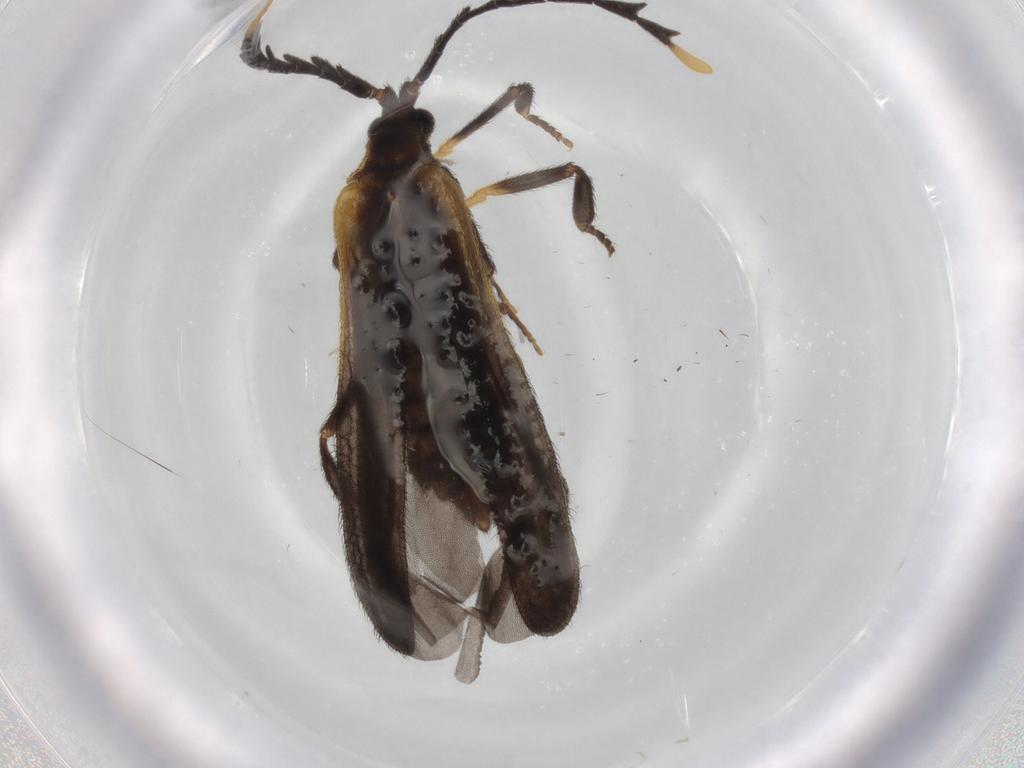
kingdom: Animalia
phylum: Arthropoda
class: Insecta
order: Coleoptera
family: Lycidae
